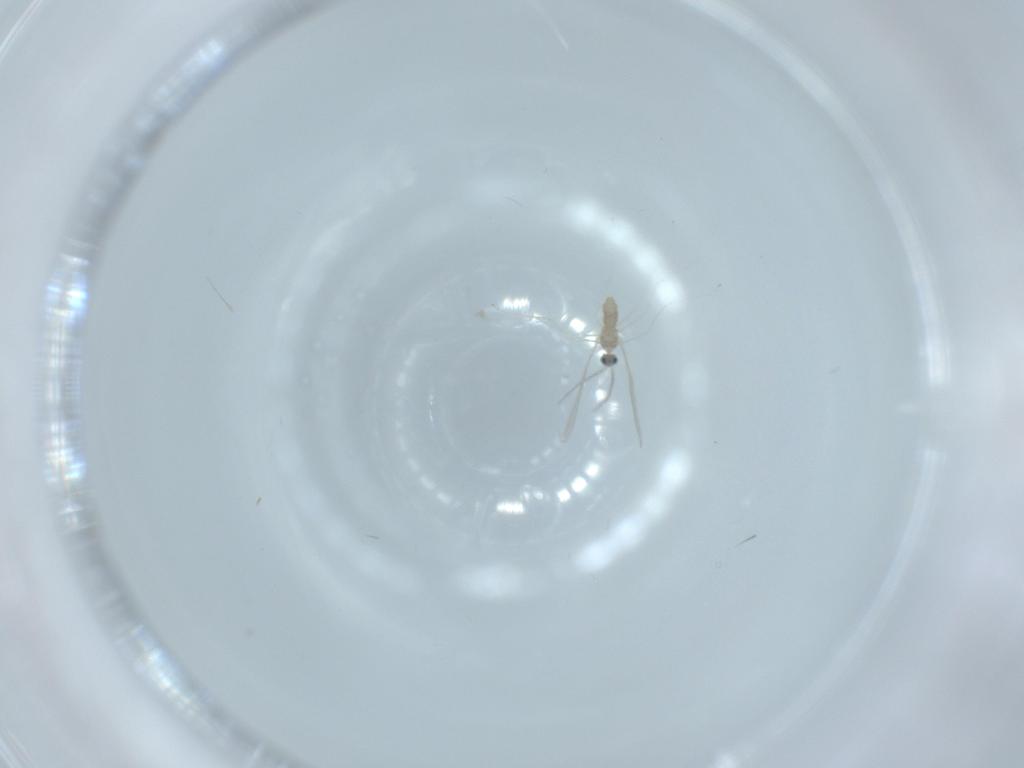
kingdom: Animalia
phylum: Arthropoda
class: Insecta
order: Diptera
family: Cecidomyiidae
